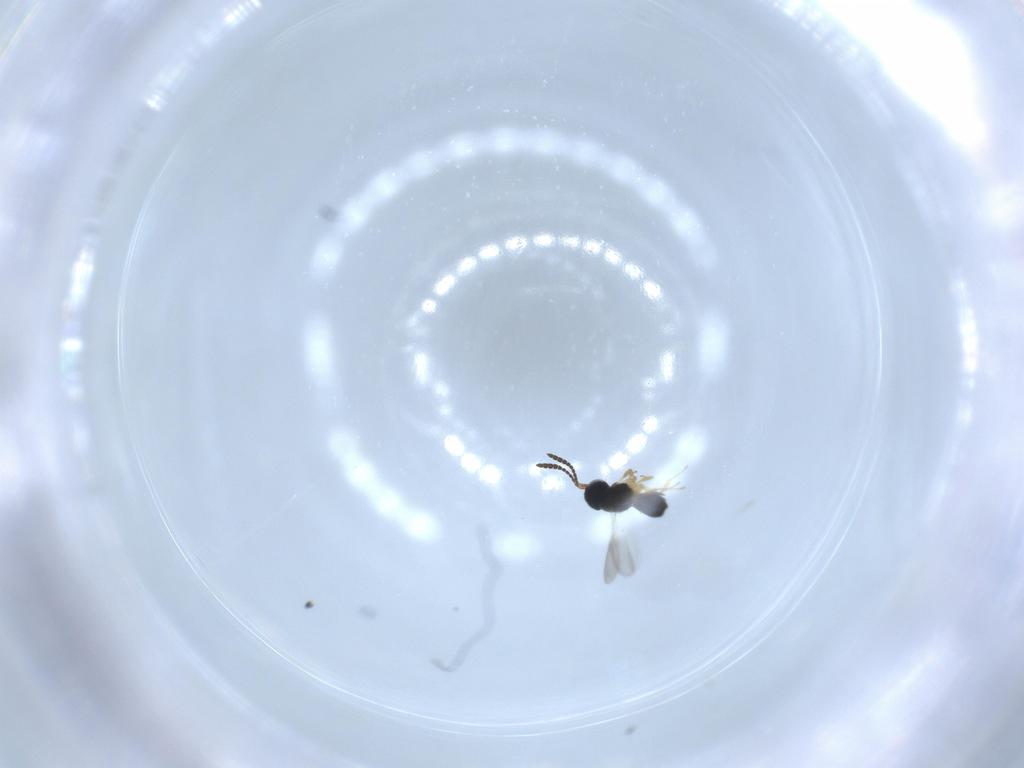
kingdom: Animalia
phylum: Arthropoda
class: Insecta
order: Hymenoptera
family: Scelionidae
